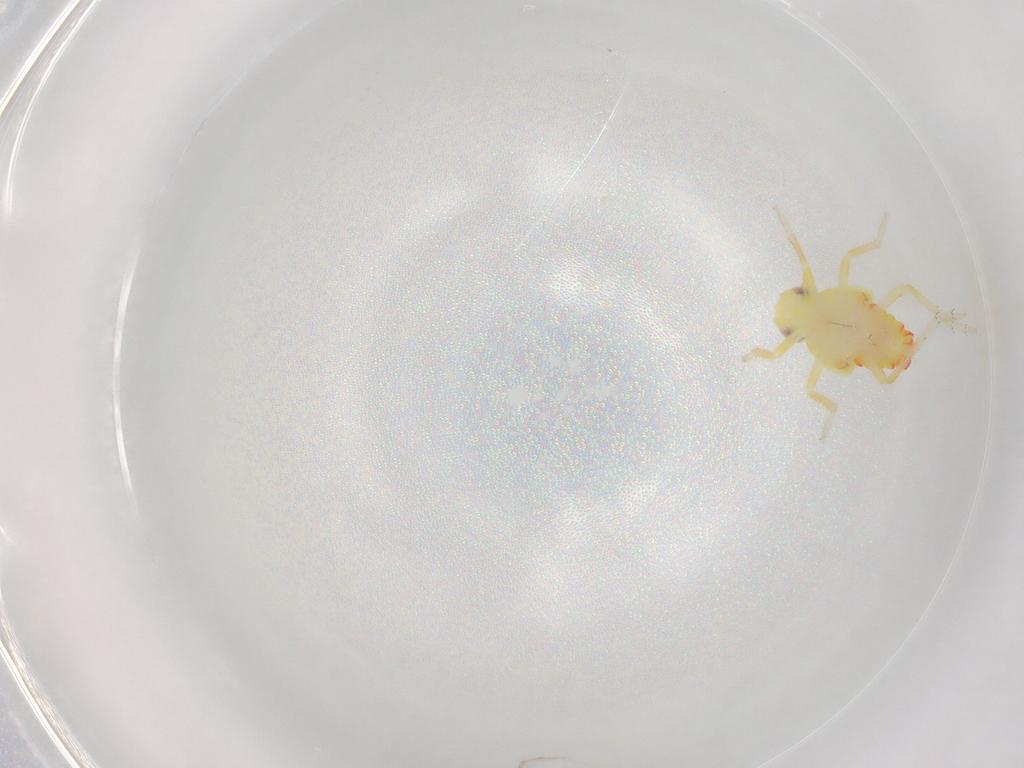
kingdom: Animalia
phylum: Arthropoda
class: Insecta
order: Hemiptera
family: Tropiduchidae
